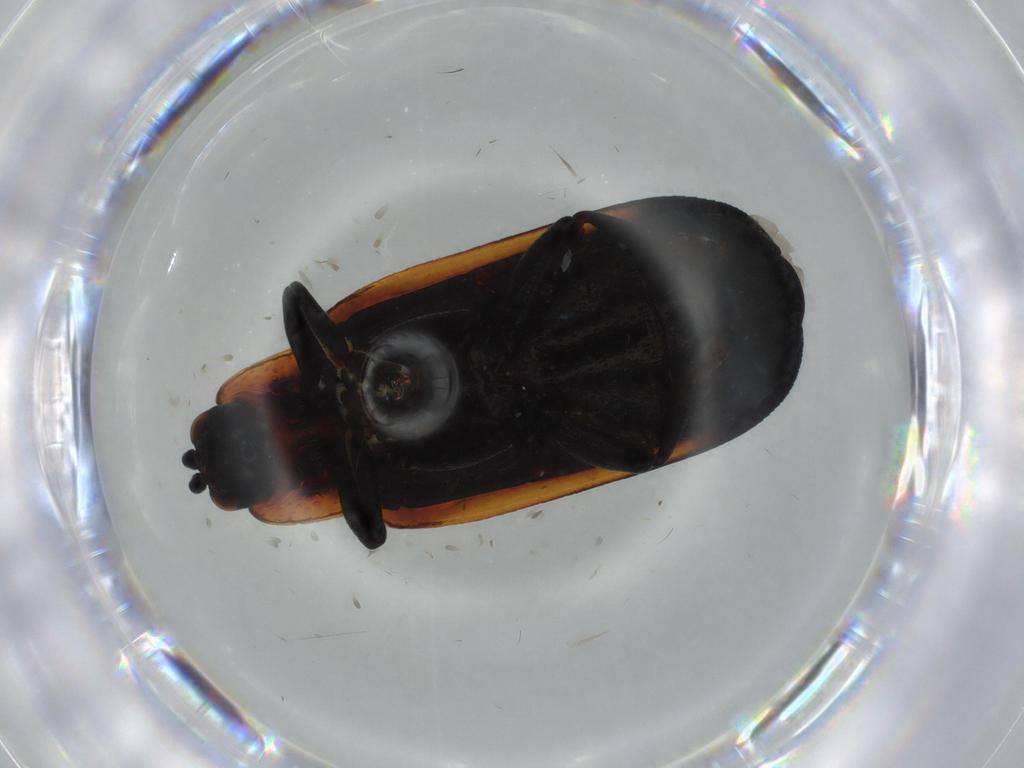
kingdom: Animalia
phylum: Arthropoda
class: Insecta
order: Coleoptera
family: Chrysomelidae
